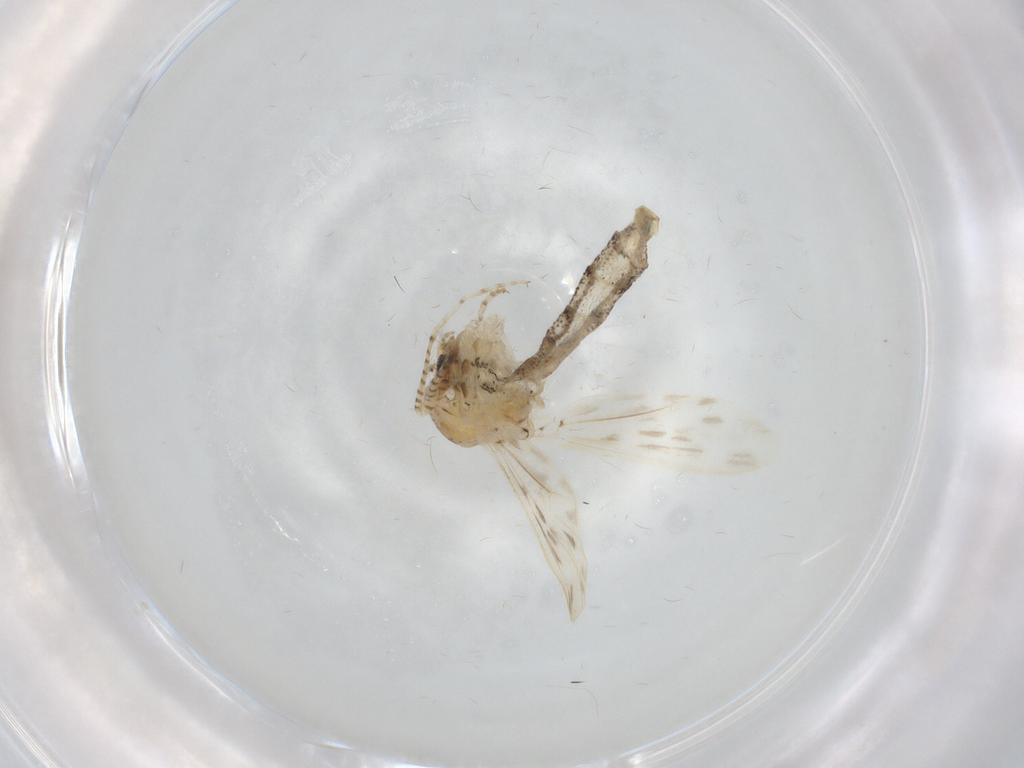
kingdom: Animalia
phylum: Arthropoda
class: Insecta
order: Diptera
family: Chaoboridae
